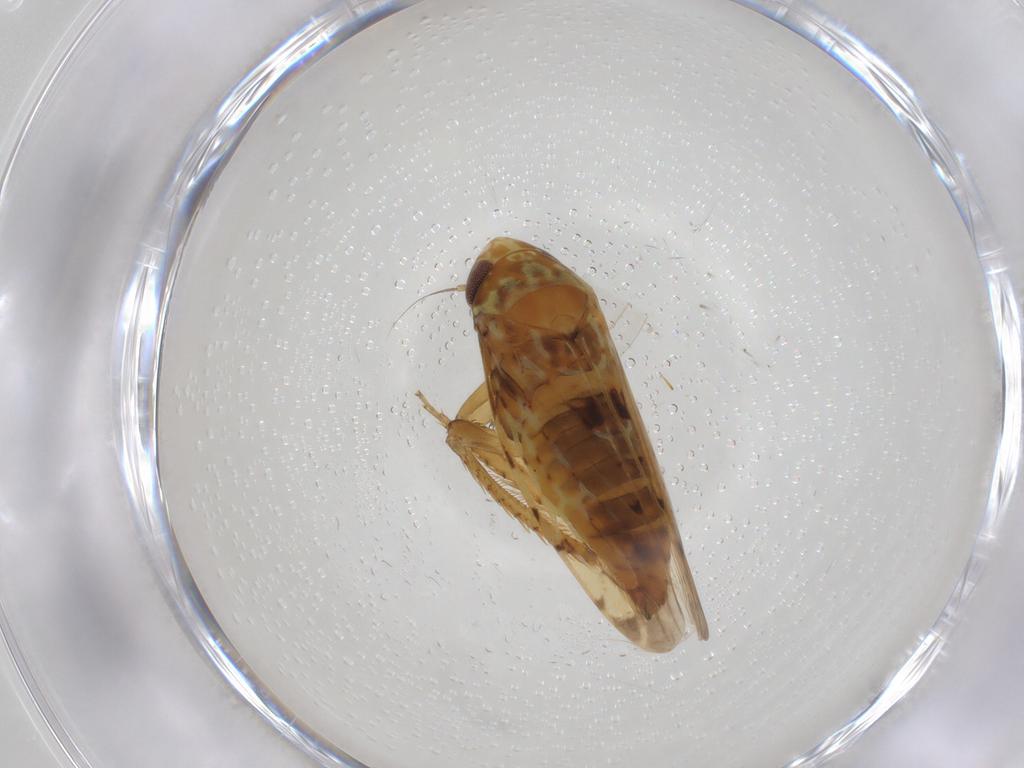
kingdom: Animalia
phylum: Arthropoda
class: Insecta
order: Hemiptera
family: Cicadellidae
